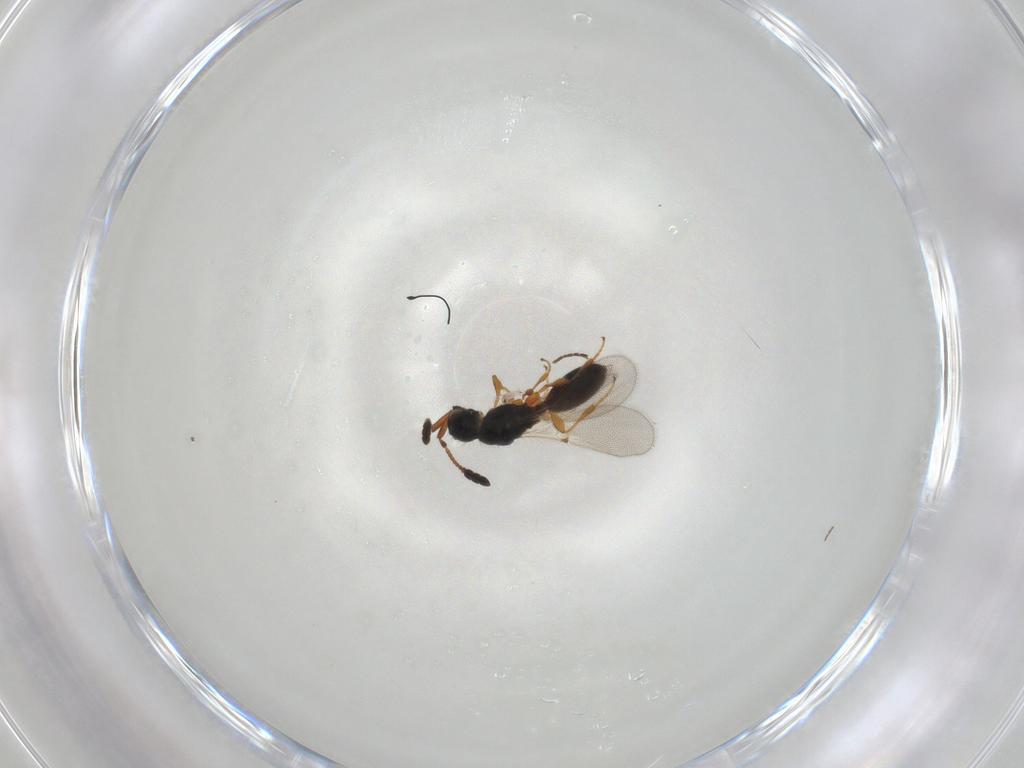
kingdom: Animalia
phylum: Arthropoda
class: Insecta
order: Hymenoptera
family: Diapriidae
